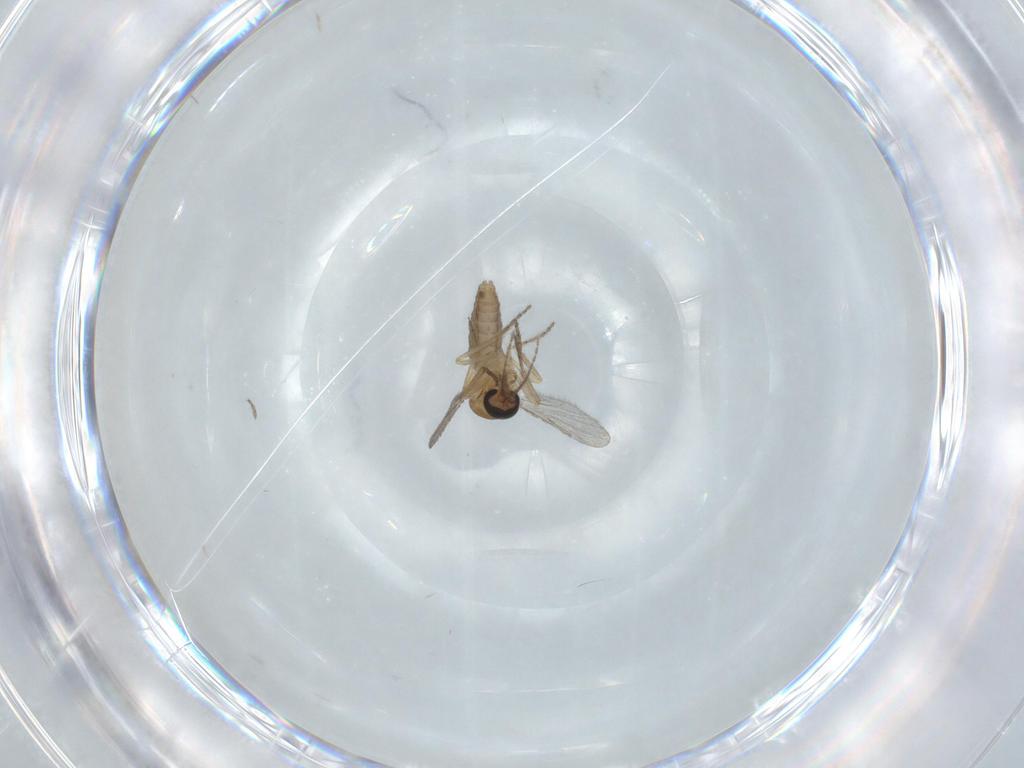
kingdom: Animalia
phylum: Arthropoda
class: Insecta
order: Diptera
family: Ceratopogonidae
